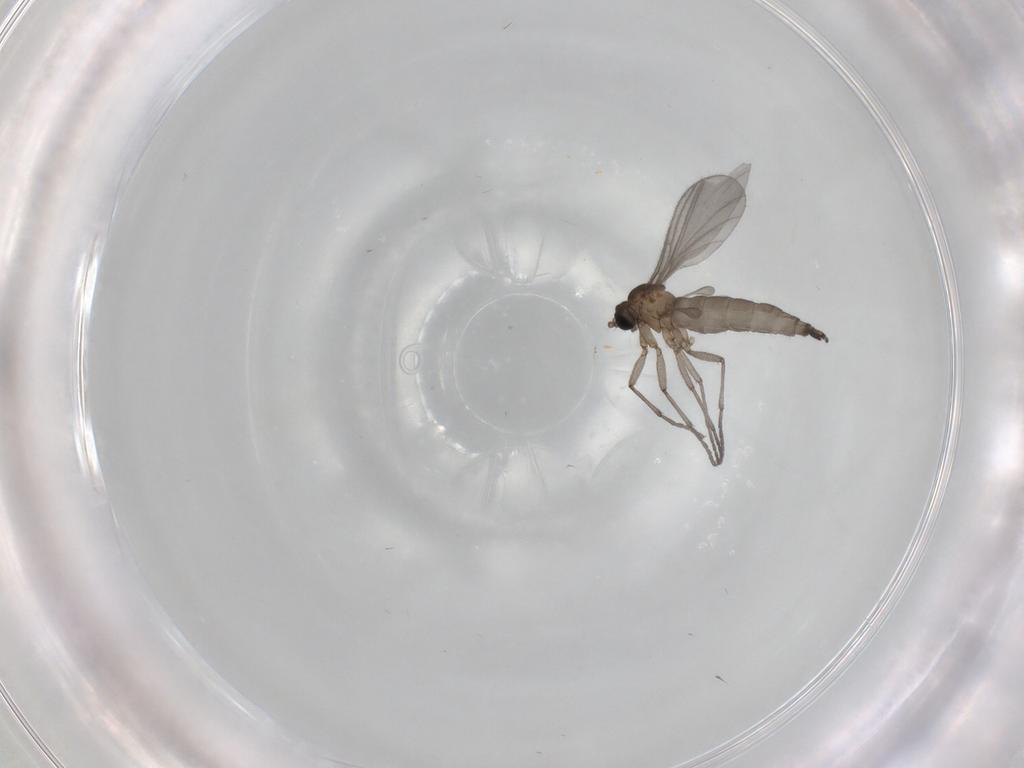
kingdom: Animalia
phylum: Arthropoda
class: Insecta
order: Diptera
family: Sciaridae
